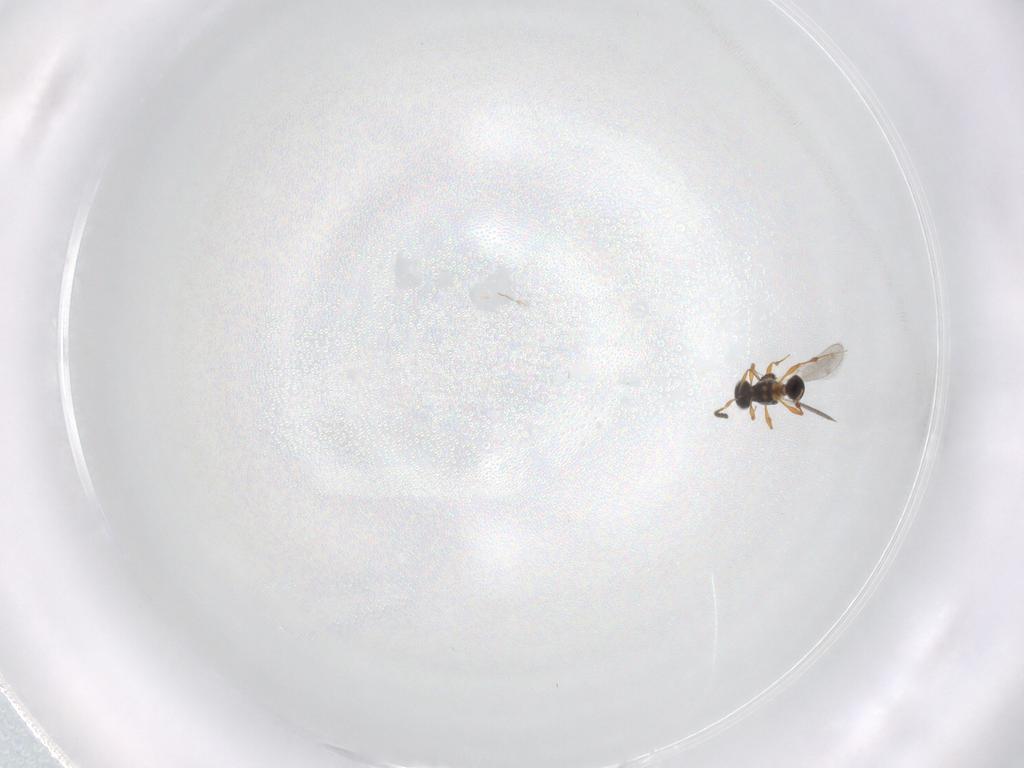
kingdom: Animalia
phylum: Arthropoda
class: Insecta
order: Hymenoptera
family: Platygastridae
